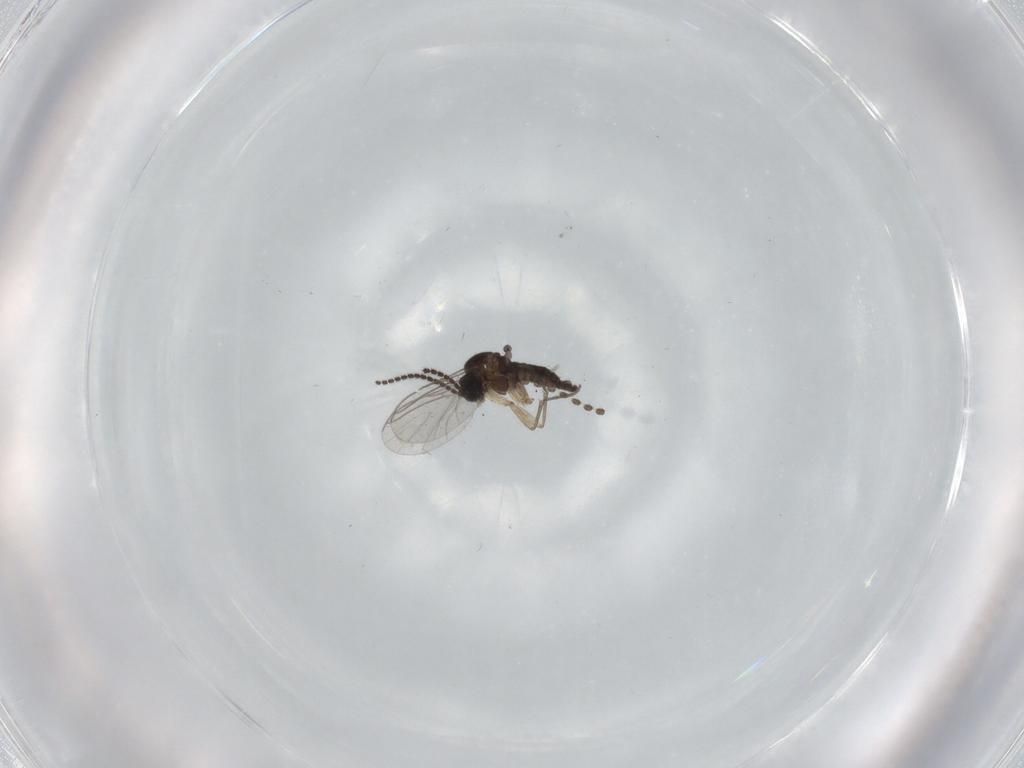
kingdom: Animalia
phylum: Arthropoda
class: Insecta
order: Diptera
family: Sciaridae
